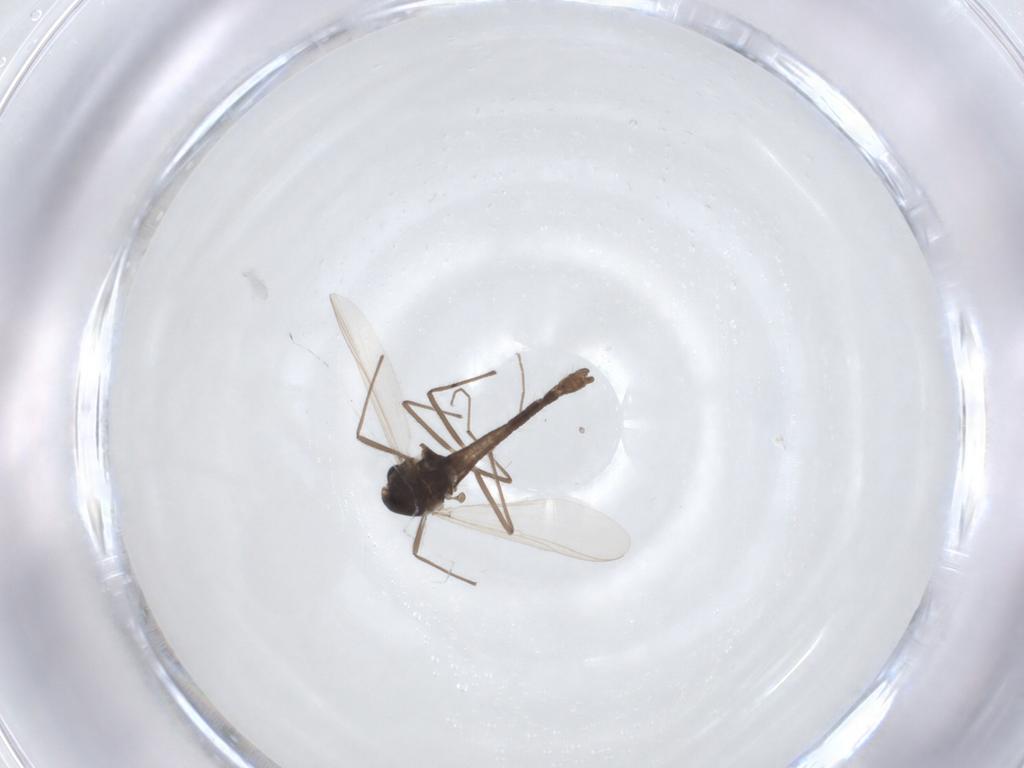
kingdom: Animalia
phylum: Arthropoda
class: Insecta
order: Diptera
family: Chironomidae
